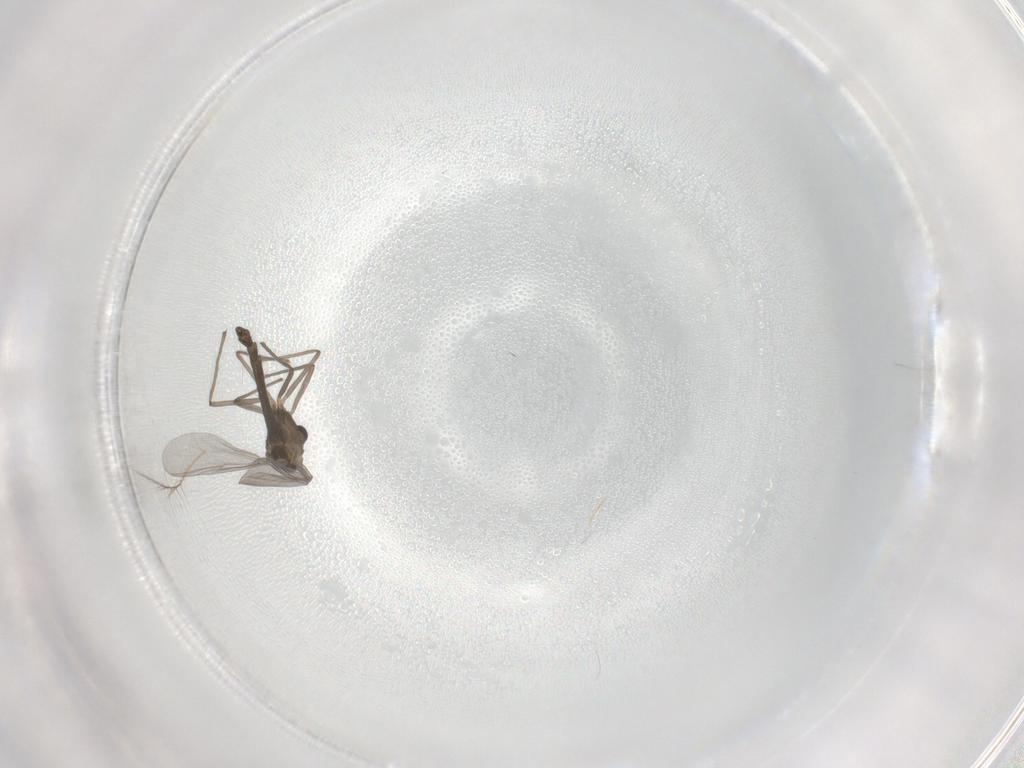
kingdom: Animalia
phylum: Arthropoda
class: Insecta
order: Diptera
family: Chironomidae
